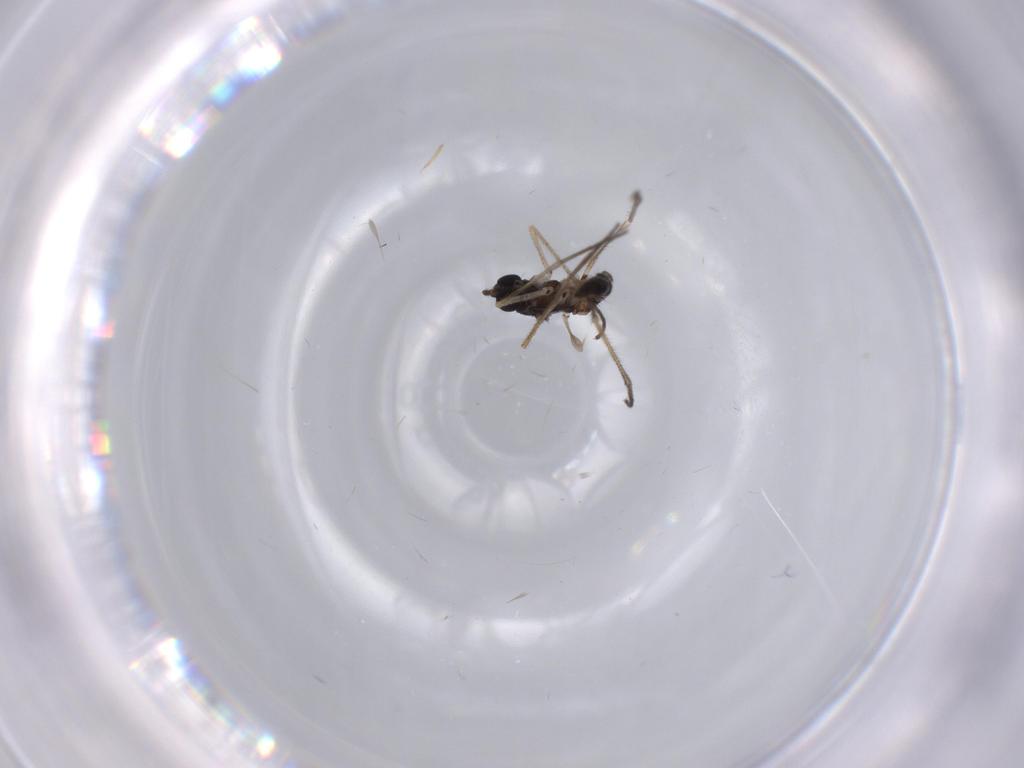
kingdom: Animalia
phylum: Arthropoda
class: Insecta
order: Diptera
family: Sciaridae
